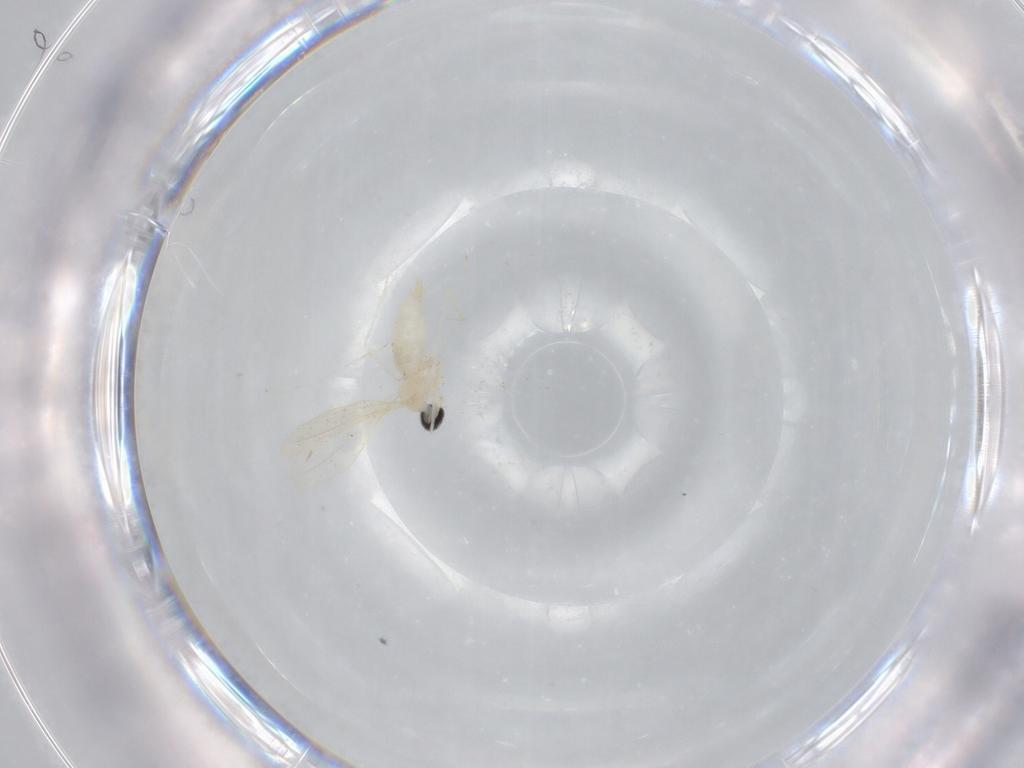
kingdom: Animalia
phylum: Arthropoda
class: Insecta
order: Diptera
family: Cecidomyiidae
